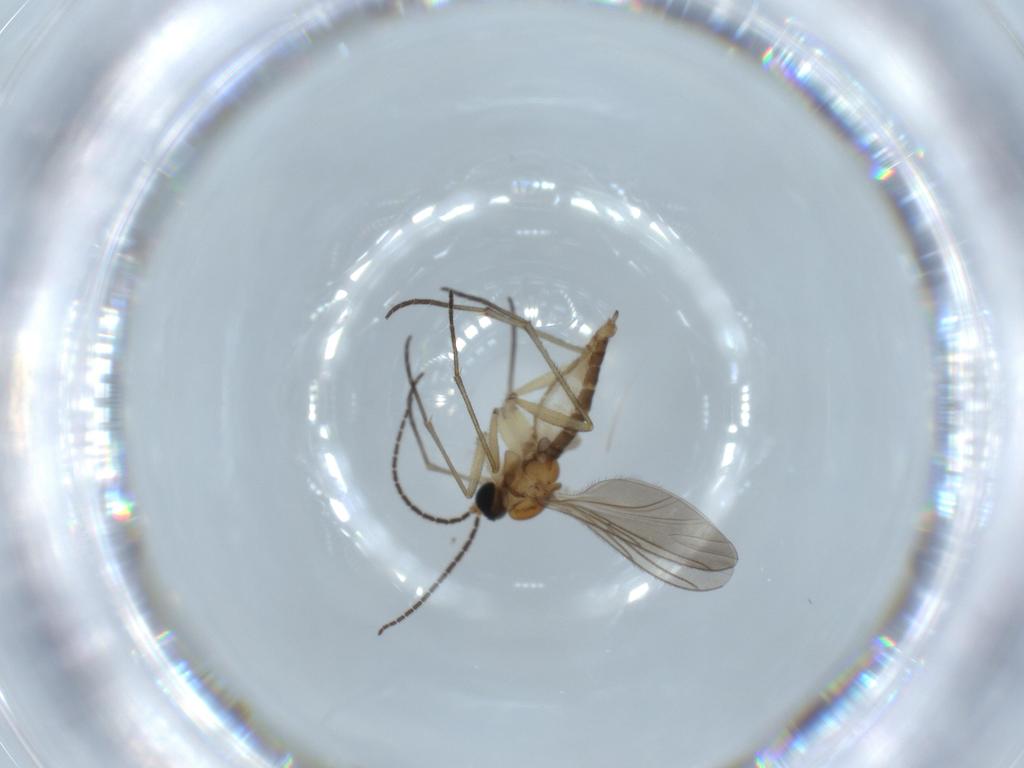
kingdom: Animalia
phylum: Arthropoda
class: Insecta
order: Diptera
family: Sciaridae
